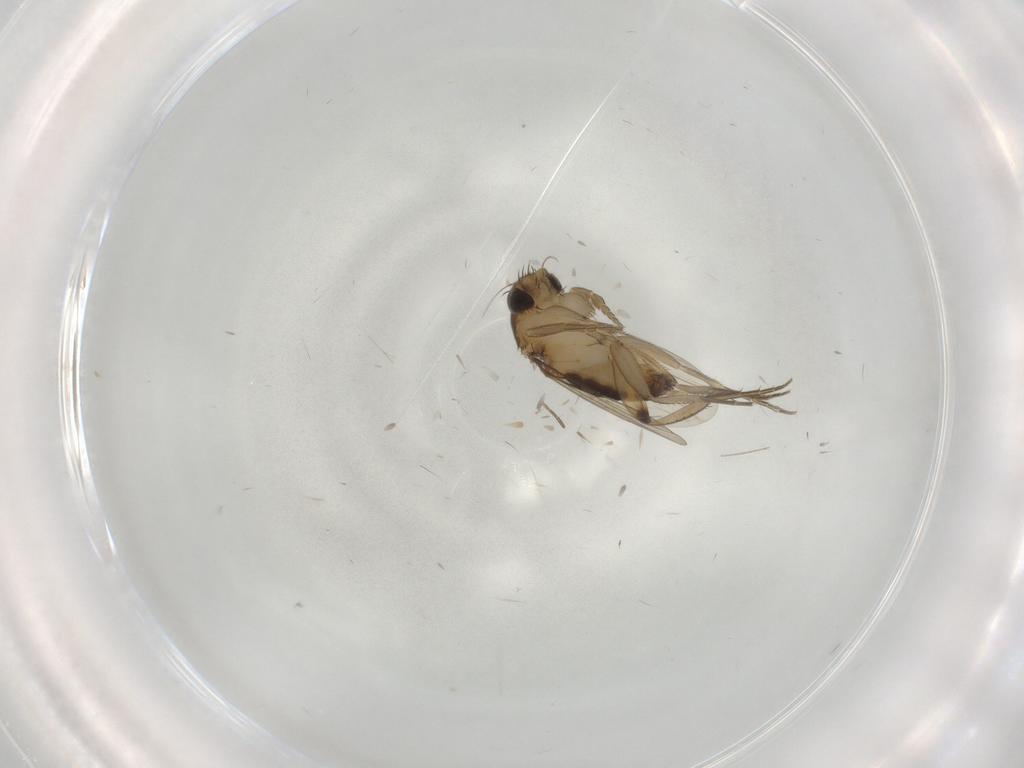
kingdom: Animalia
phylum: Arthropoda
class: Insecta
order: Diptera
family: Phoridae
